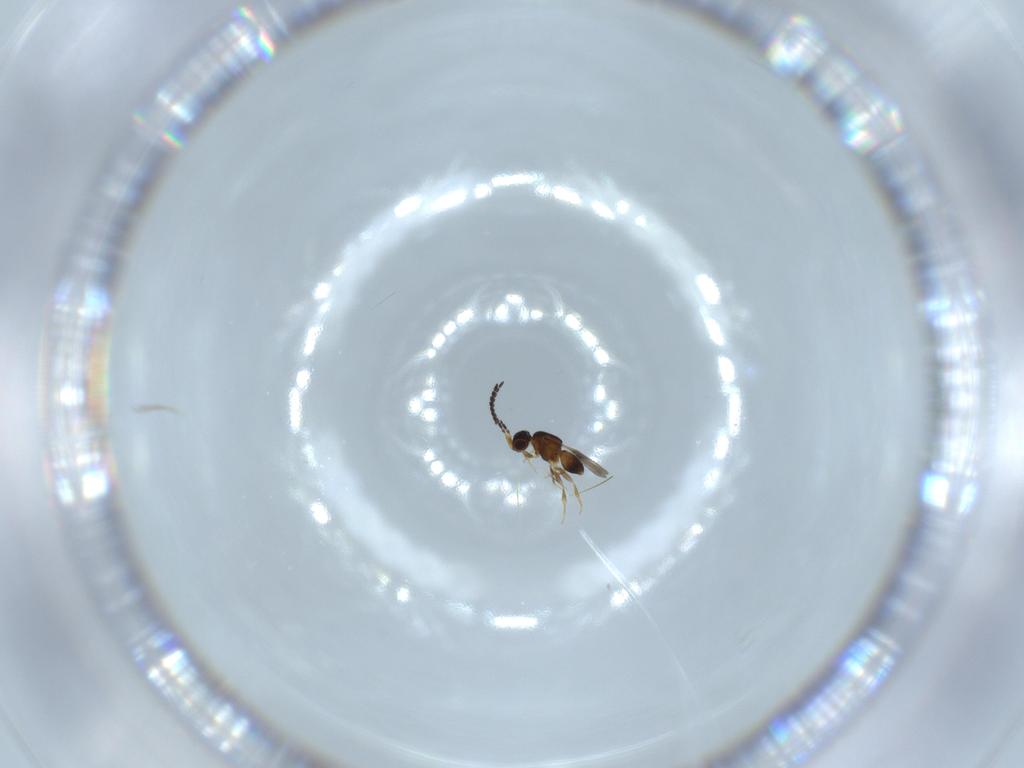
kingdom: Animalia
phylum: Arthropoda
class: Insecta
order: Hymenoptera
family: Ceraphronidae
